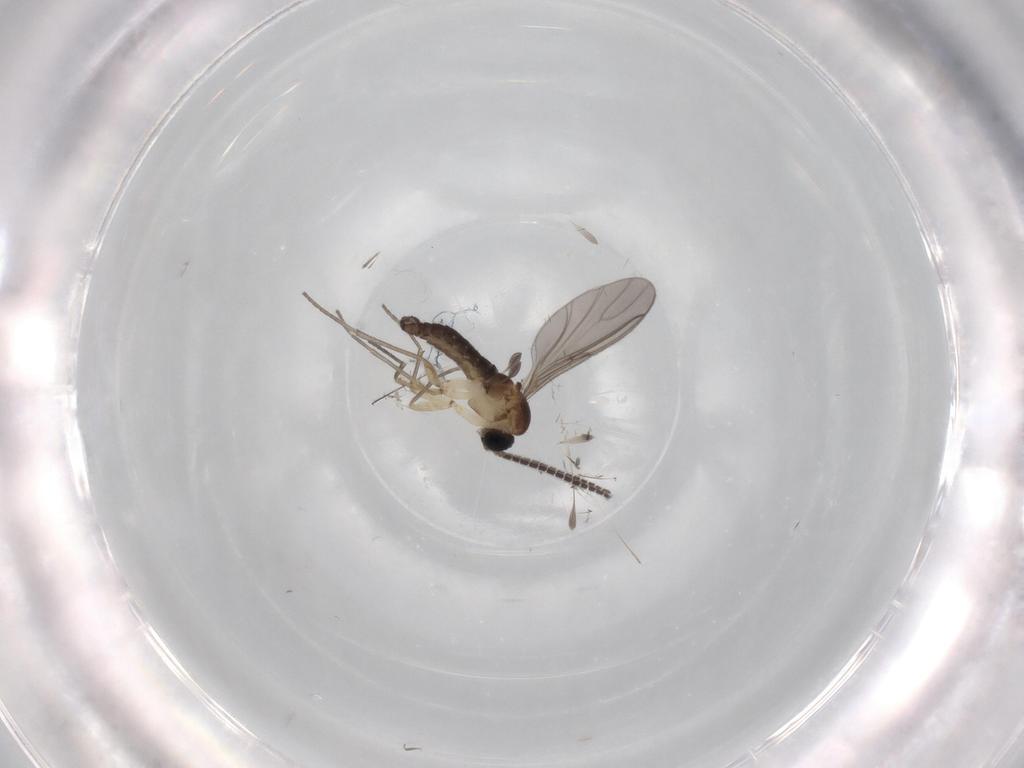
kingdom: Animalia
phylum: Arthropoda
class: Insecta
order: Diptera
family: Sciaridae
